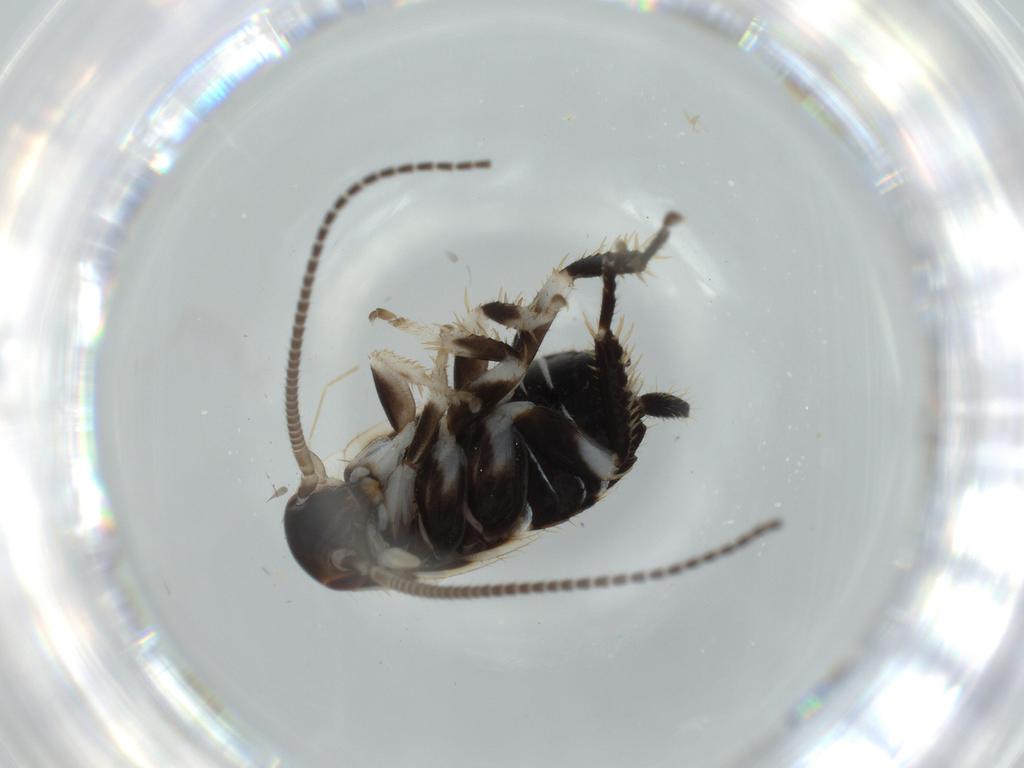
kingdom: Animalia
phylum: Arthropoda
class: Insecta
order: Blattodea
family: Ectobiidae
